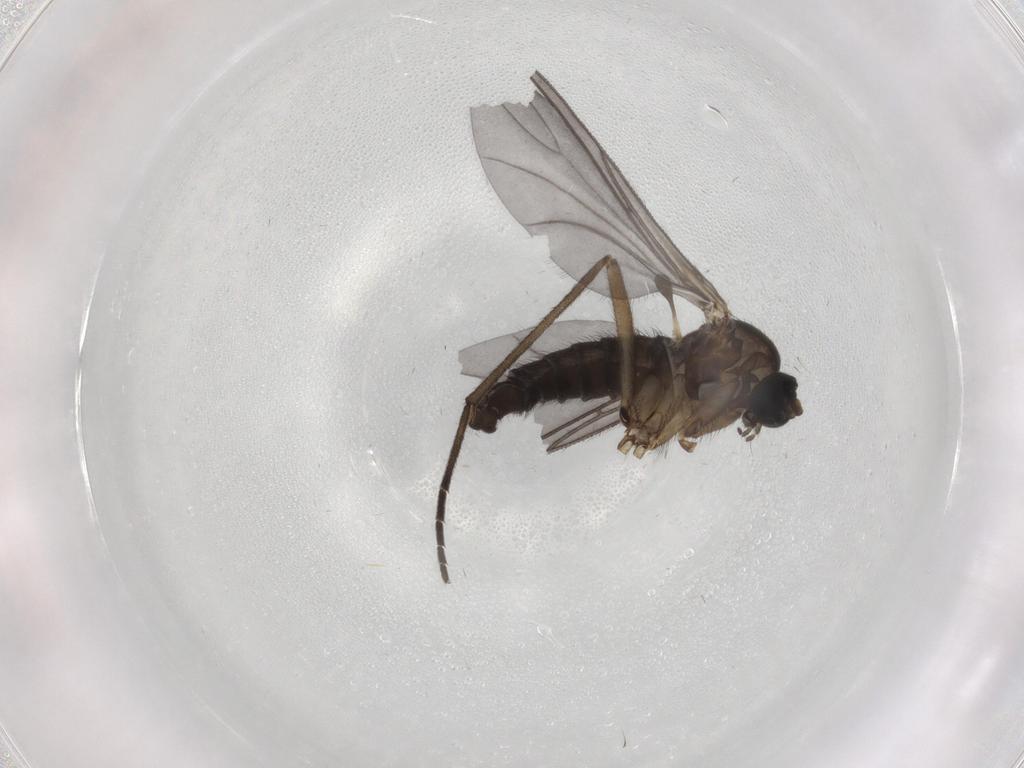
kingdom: Animalia
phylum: Arthropoda
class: Insecta
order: Diptera
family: Sciaridae
